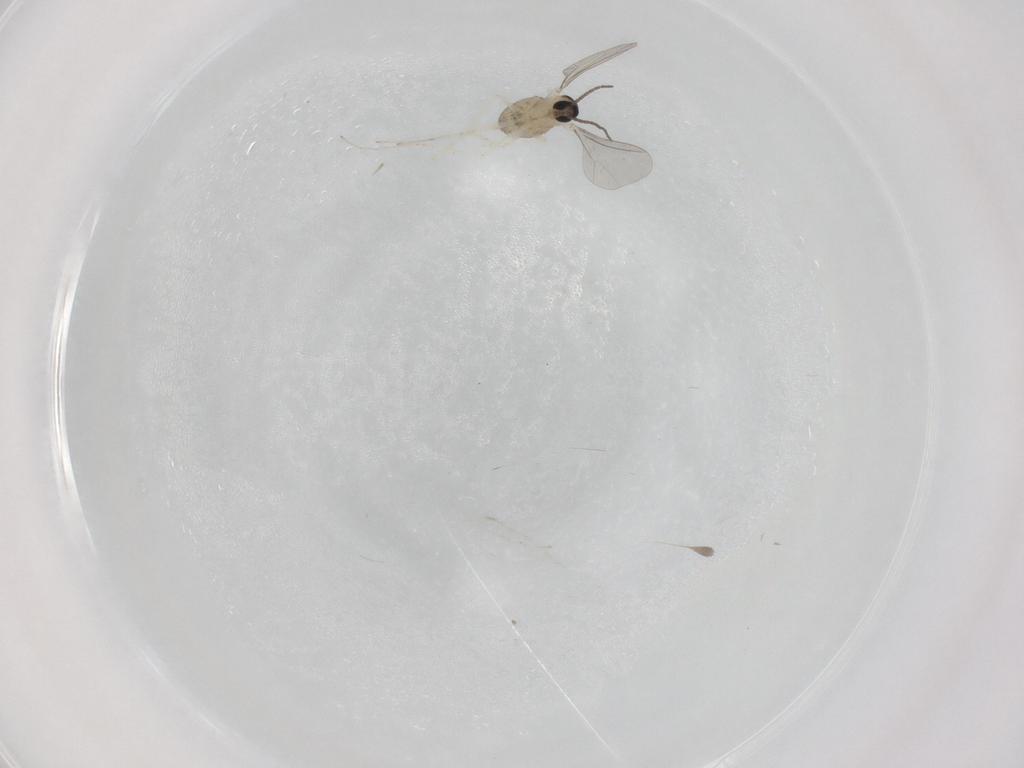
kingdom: Animalia
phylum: Arthropoda
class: Insecta
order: Diptera
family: Cecidomyiidae
